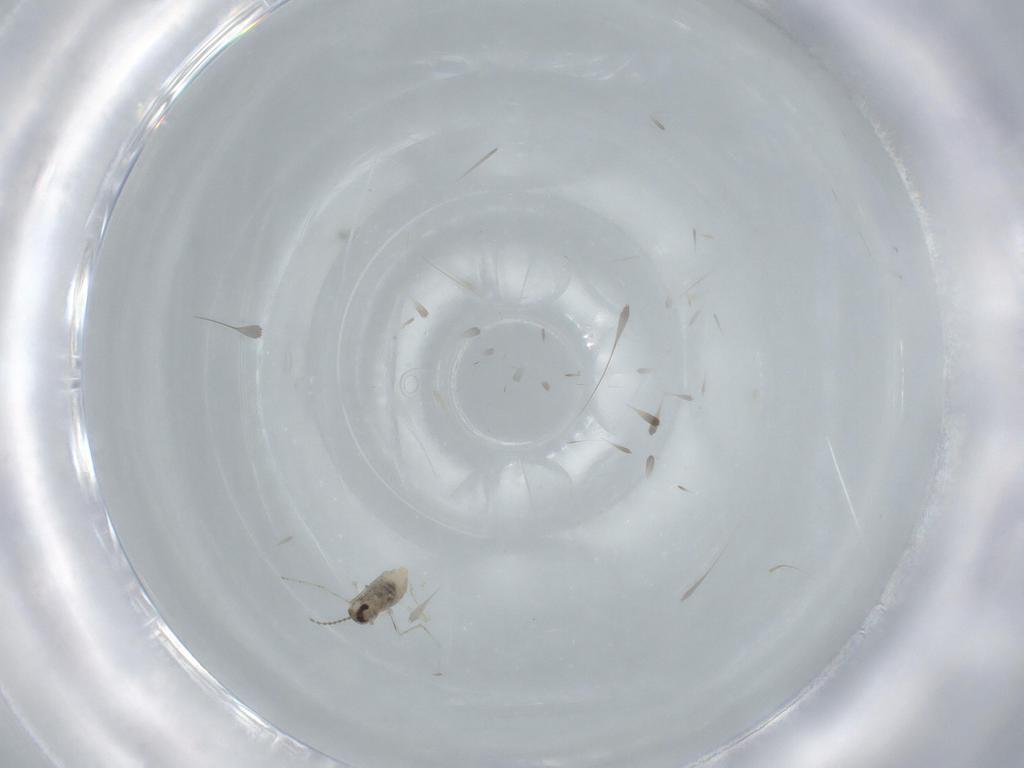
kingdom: Animalia
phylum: Arthropoda
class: Insecta
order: Diptera
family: Cecidomyiidae
